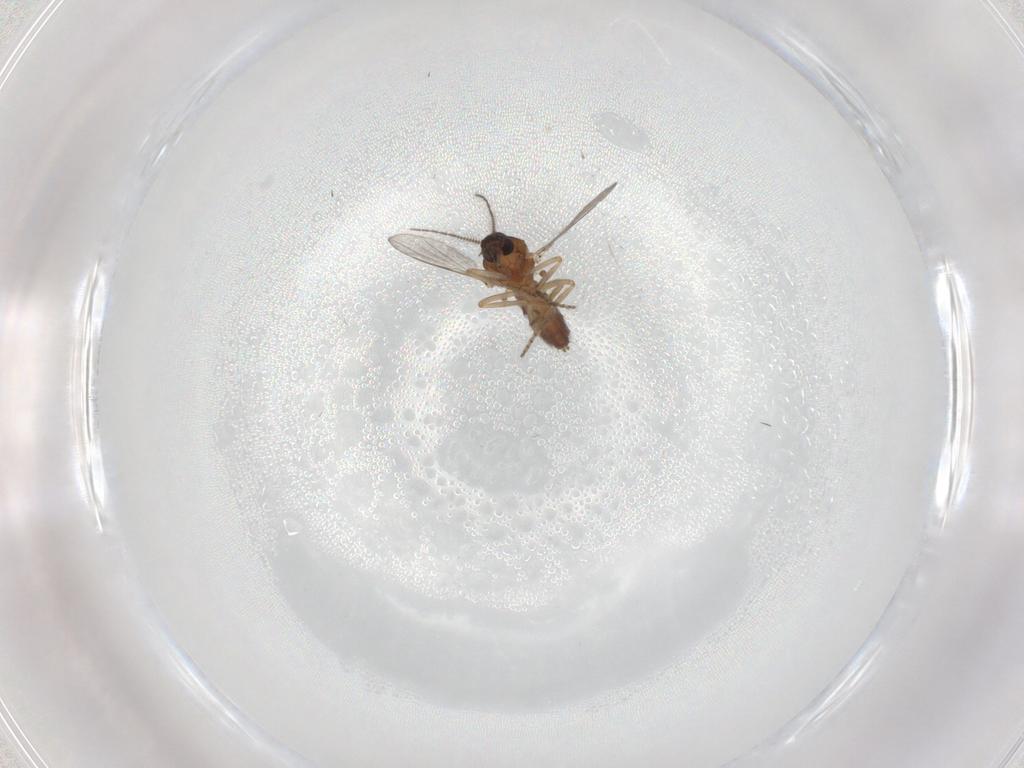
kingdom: Animalia
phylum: Arthropoda
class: Insecta
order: Diptera
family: Ceratopogonidae
